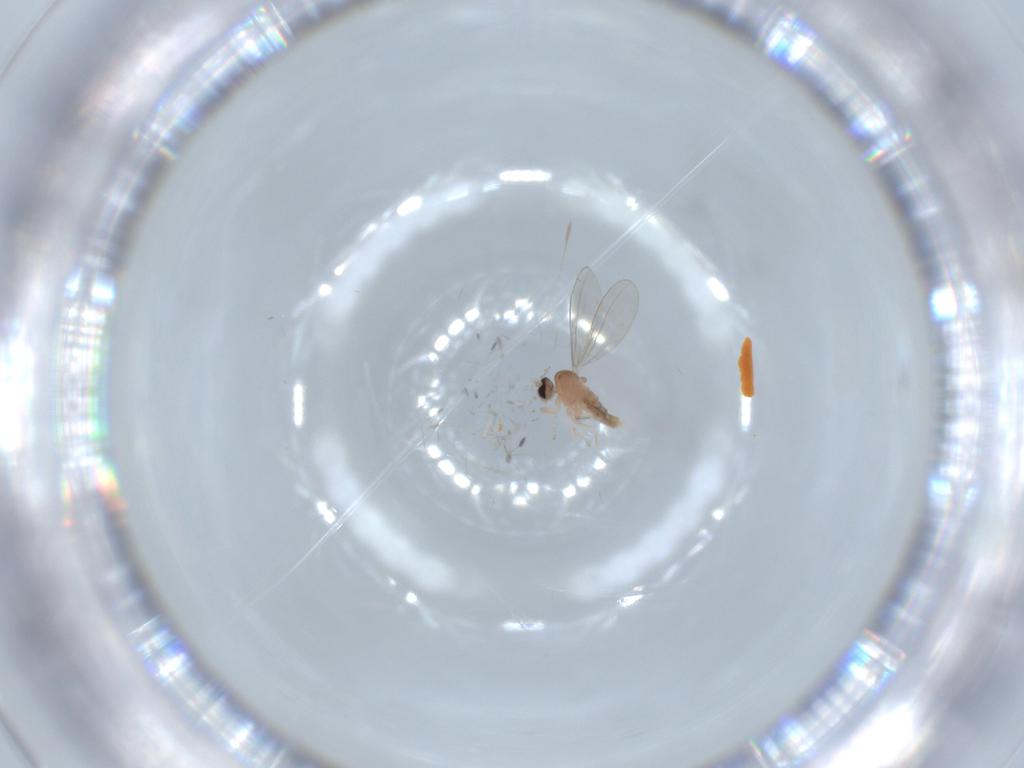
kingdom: Animalia
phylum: Arthropoda
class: Insecta
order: Diptera
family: Cecidomyiidae
